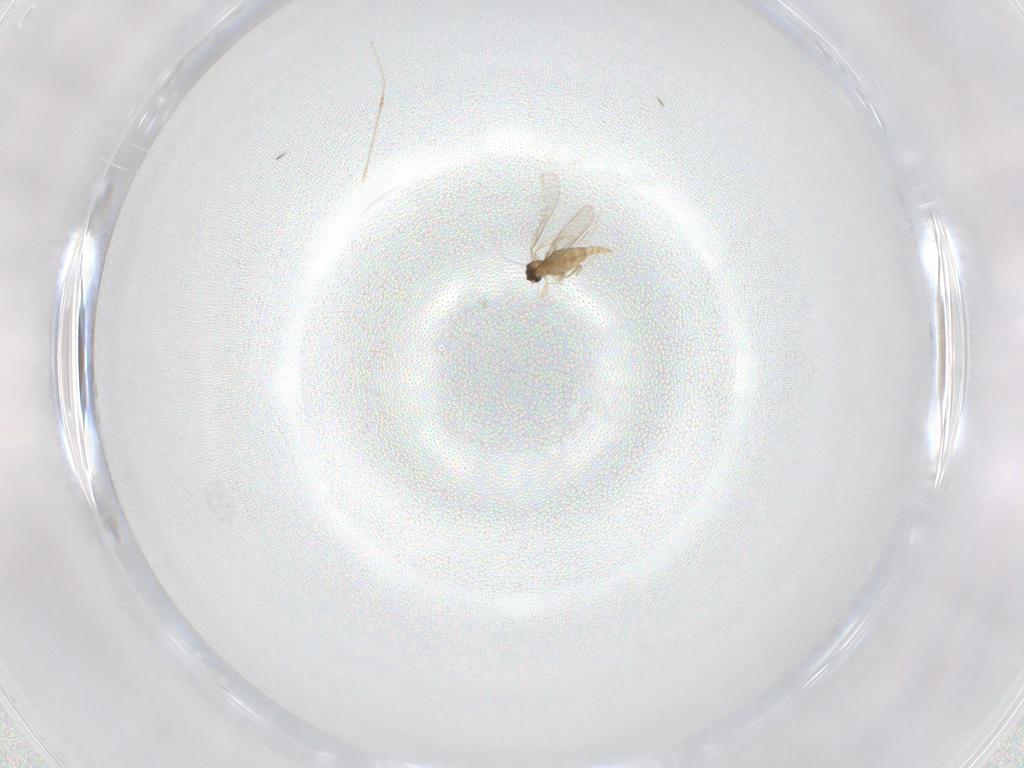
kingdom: Animalia
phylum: Arthropoda
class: Insecta
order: Diptera
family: Cecidomyiidae
